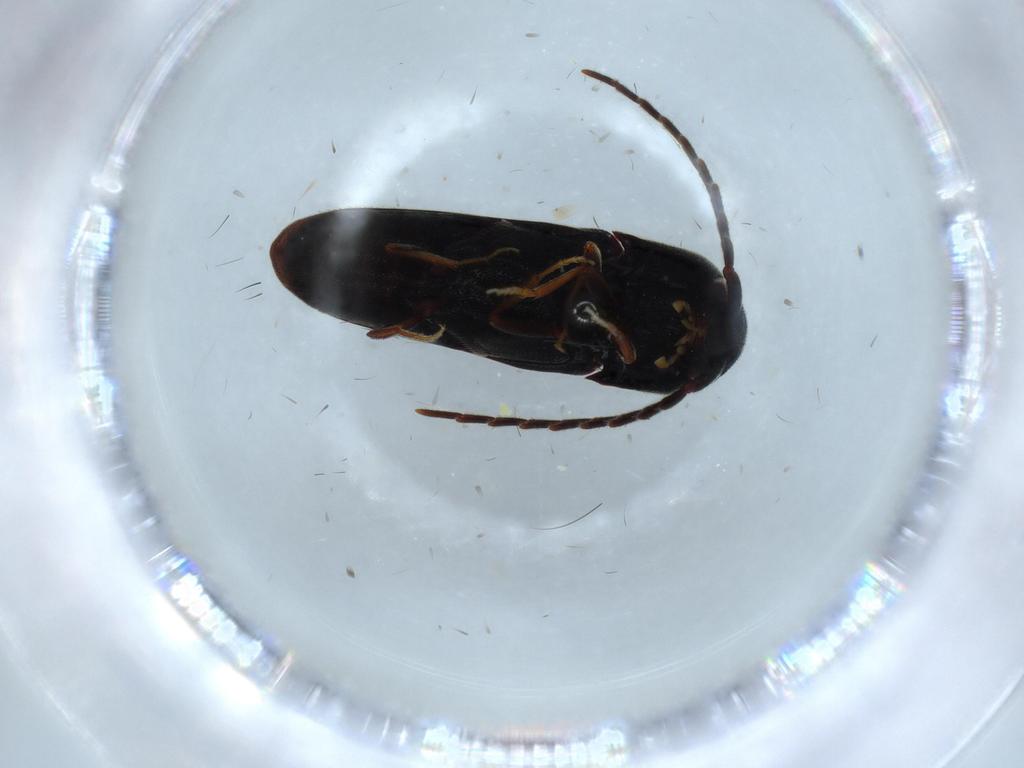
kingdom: Animalia
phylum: Arthropoda
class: Insecta
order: Coleoptera
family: Eucnemidae
